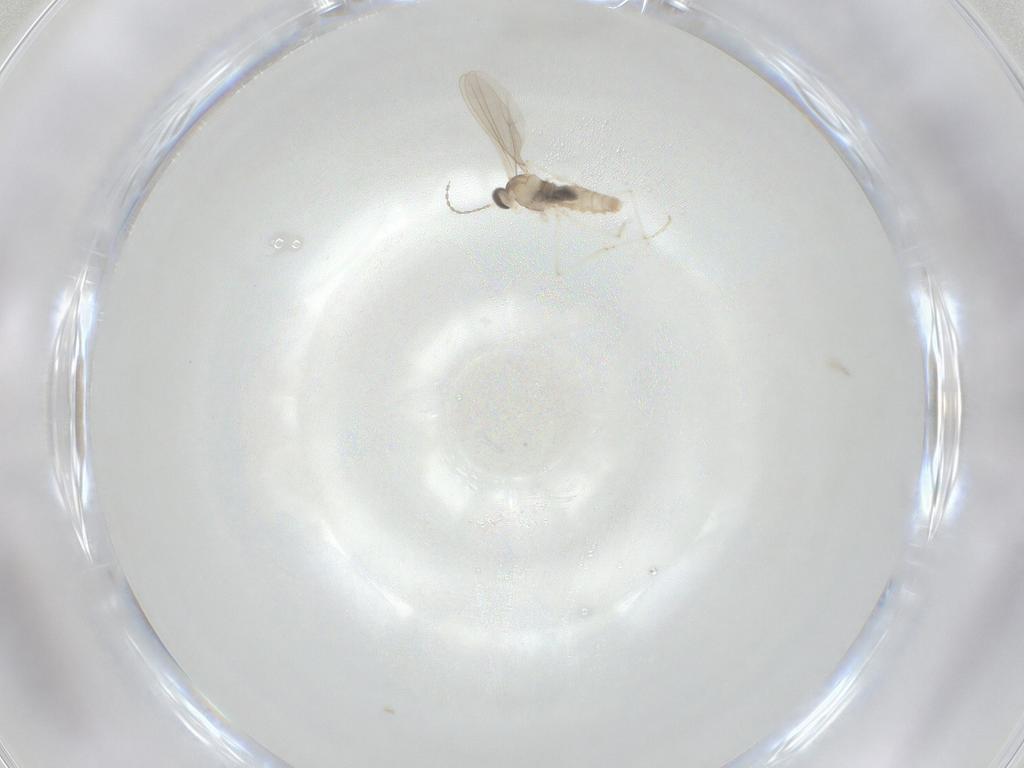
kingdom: Animalia
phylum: Arthropoda
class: Insecta
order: Diptera
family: Cecidomyiidae
